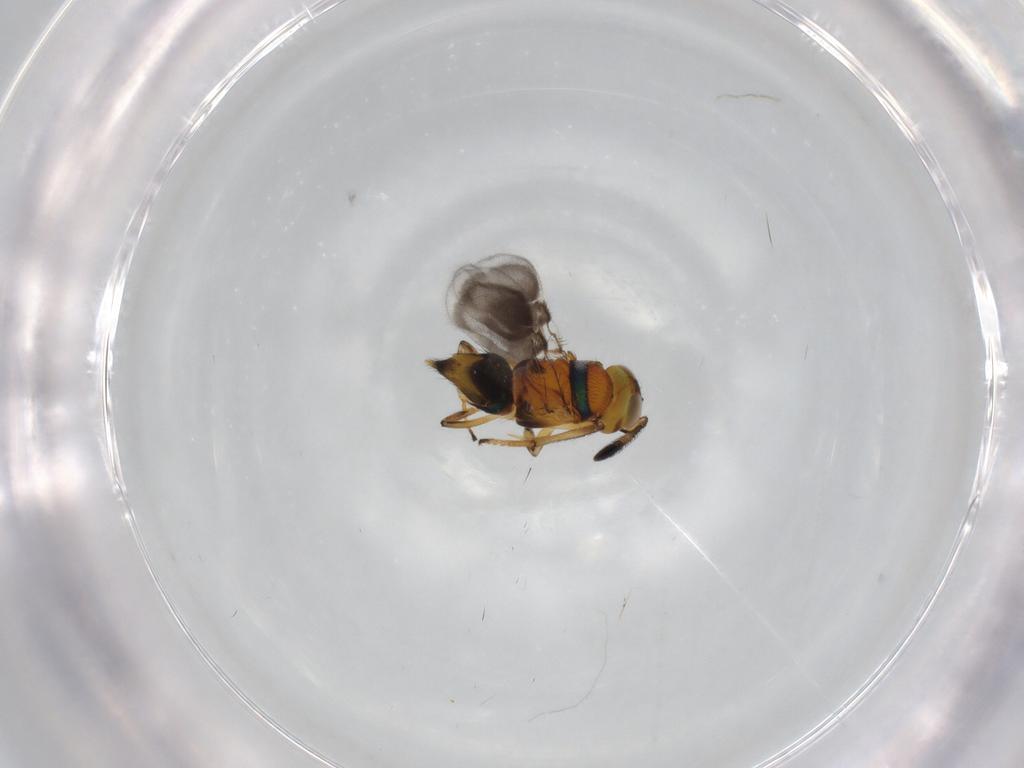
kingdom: Animalia
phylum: Arthropoda
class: Insecta
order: Hymenoptera
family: Encyrtidae
